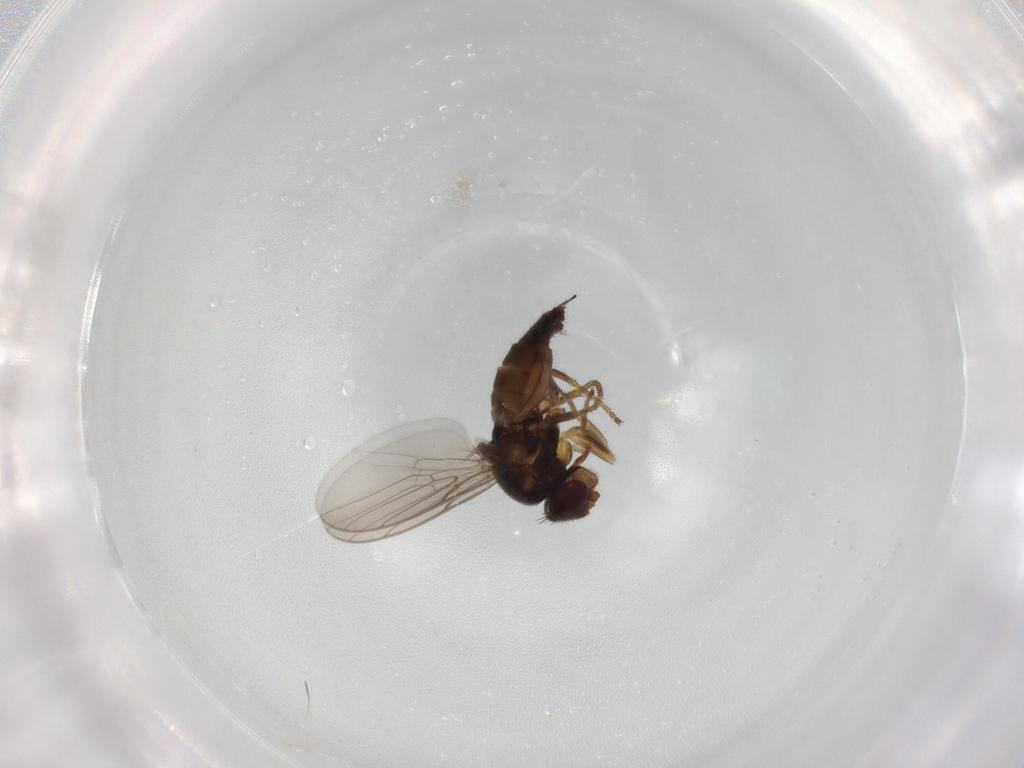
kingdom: Animalia
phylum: Arthropoda
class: Insecta
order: Diptera
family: Chloropidae
